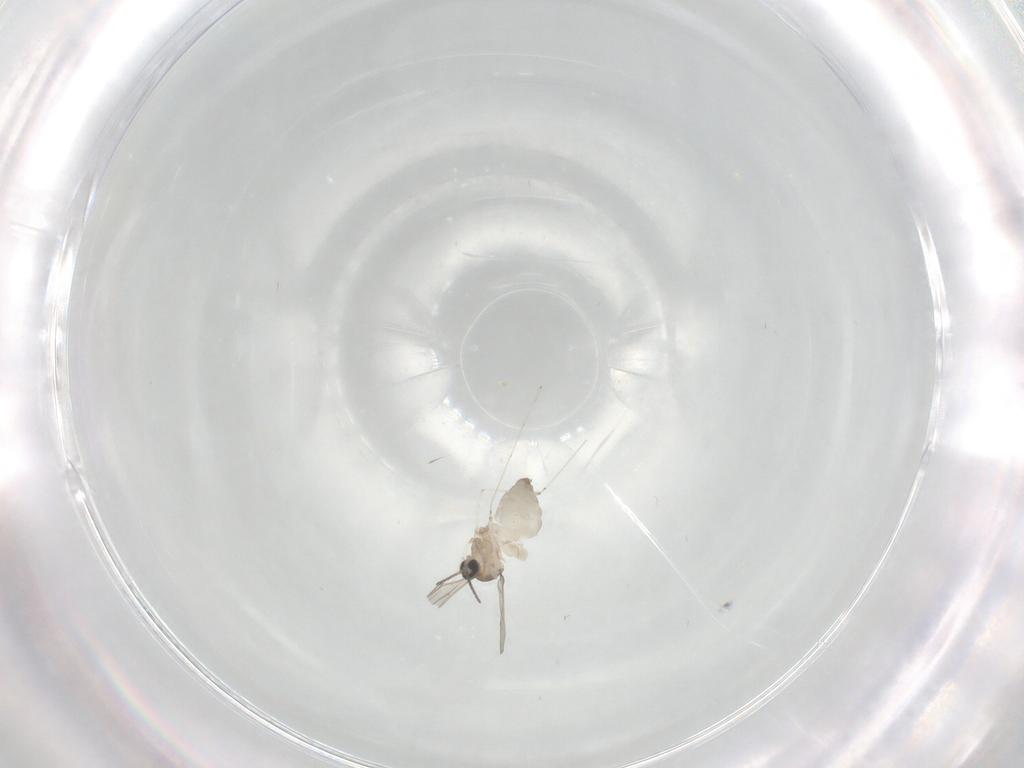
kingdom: Animalia
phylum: Arthropoda
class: Insecta
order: Diptera
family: Cecidomyiidae
